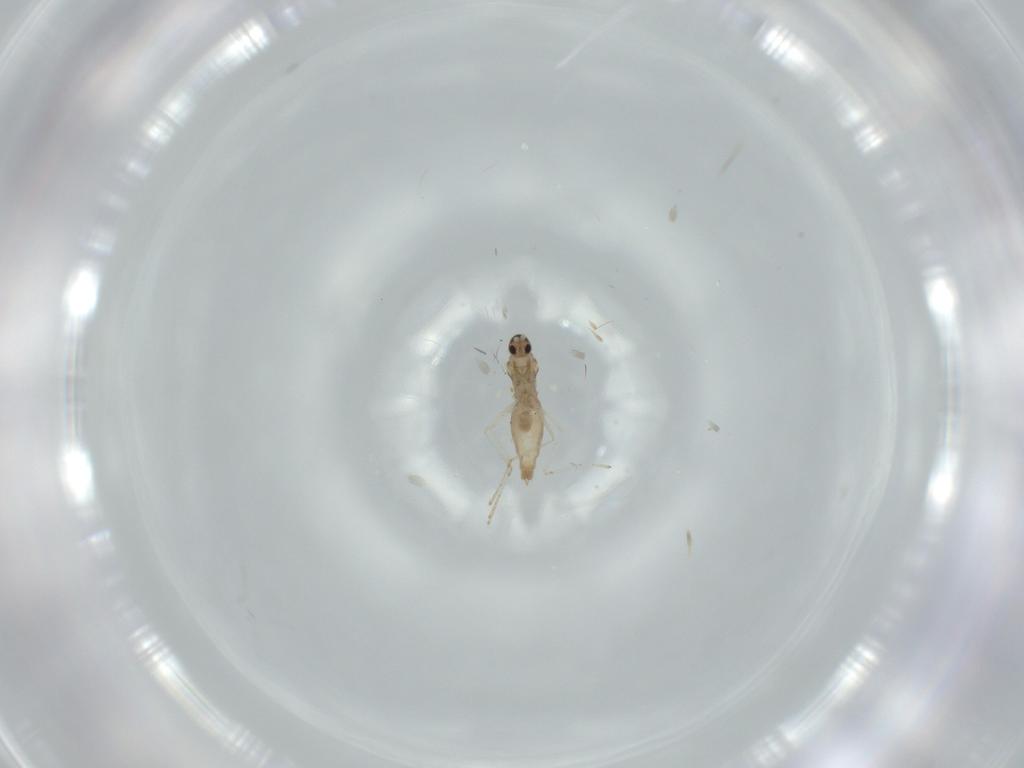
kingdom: Animalia
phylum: Arthropoda
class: Insecta
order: Diptera
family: Cecidomyiidae
